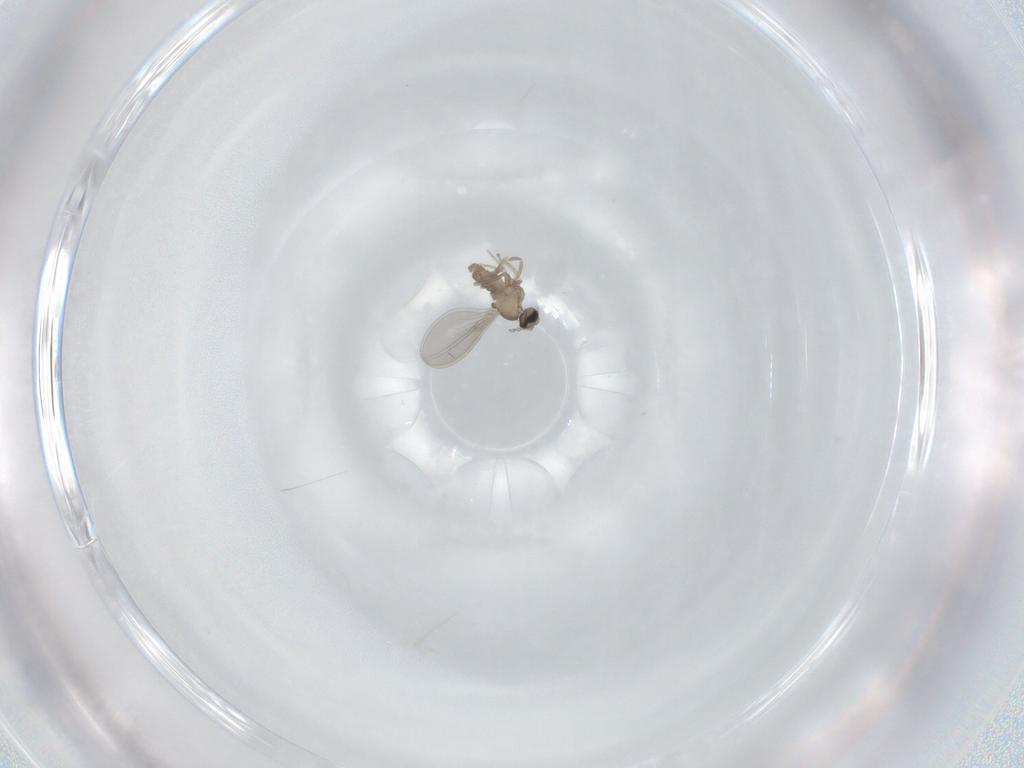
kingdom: Animalia
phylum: Arthropoda
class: Insecta
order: Diptera
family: Psychodidae
